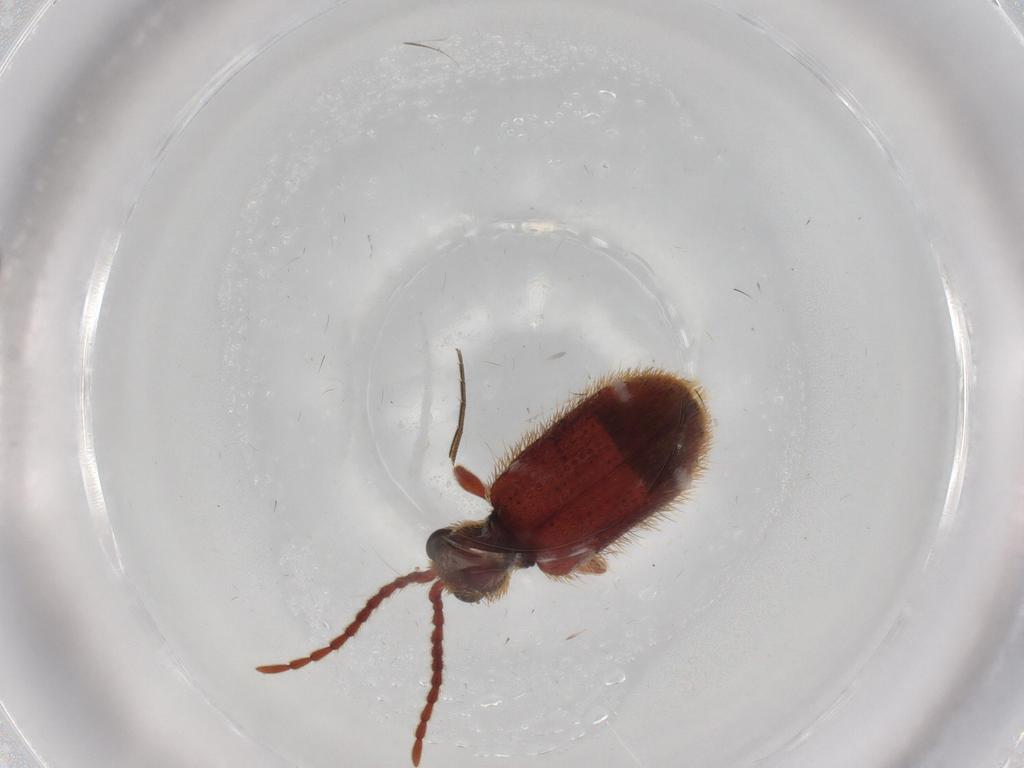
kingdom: Animalia
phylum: Arthropoda
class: Insecta
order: Coleoptera
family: Ptinidae
